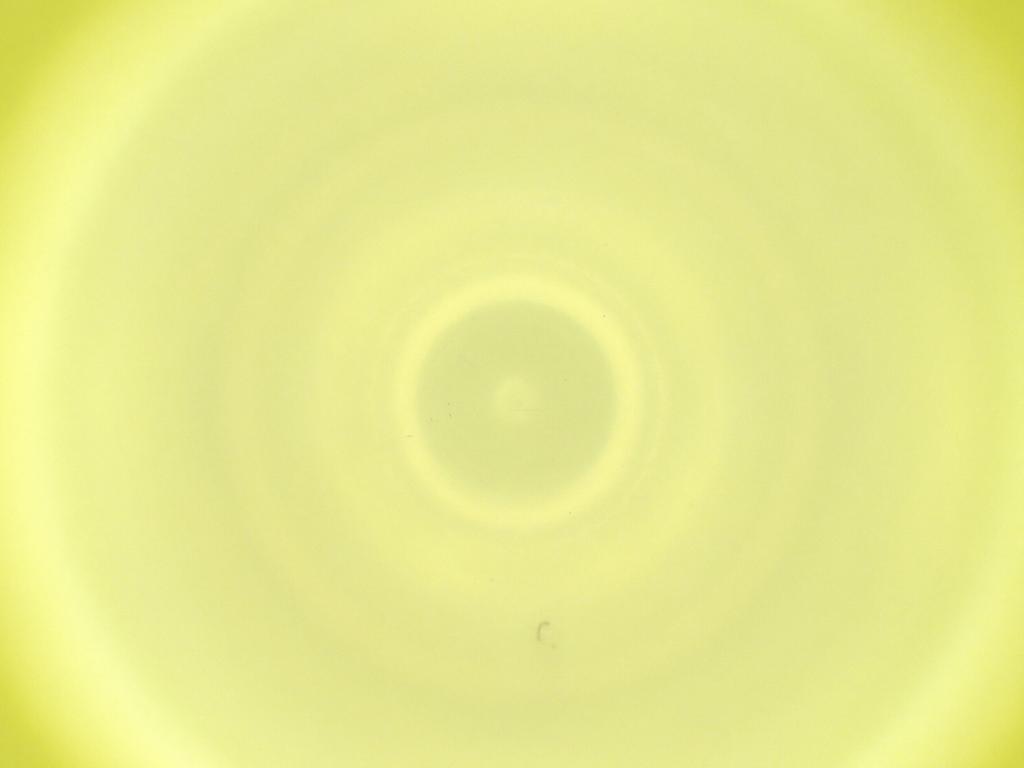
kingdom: Animalia
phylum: Arthropoda
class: Insecta
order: Diptera
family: Cecidomyiidae
